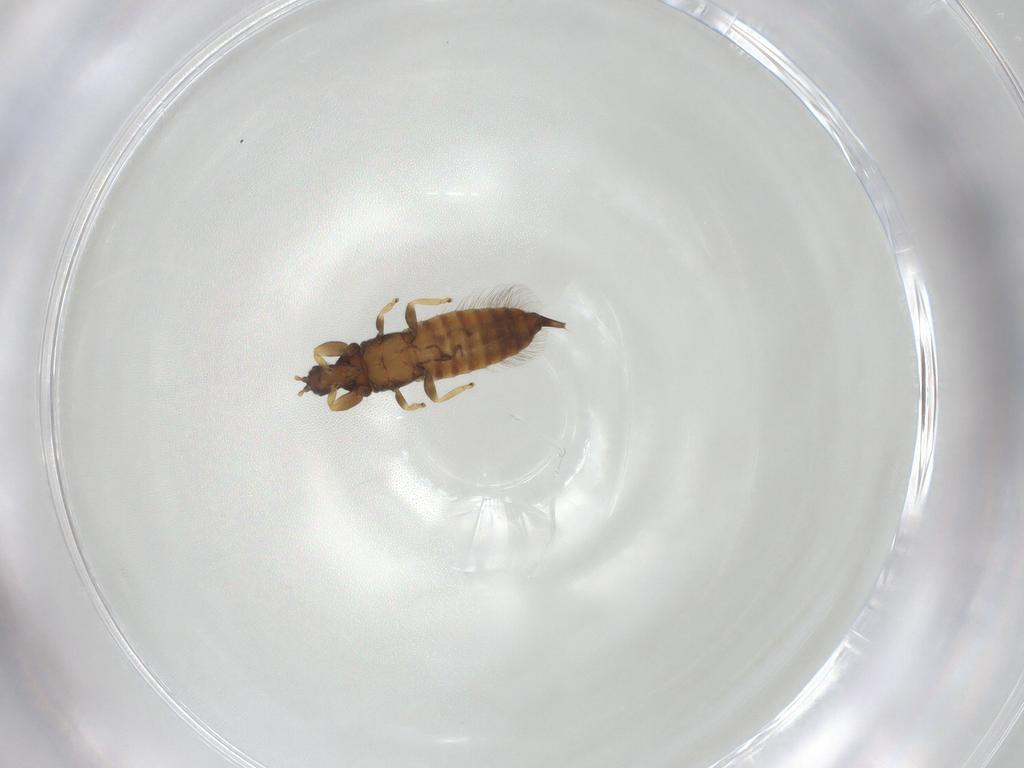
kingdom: Animalia
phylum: Arthropoda
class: Insecta
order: Thysanoptera
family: Phlaeothripidae
